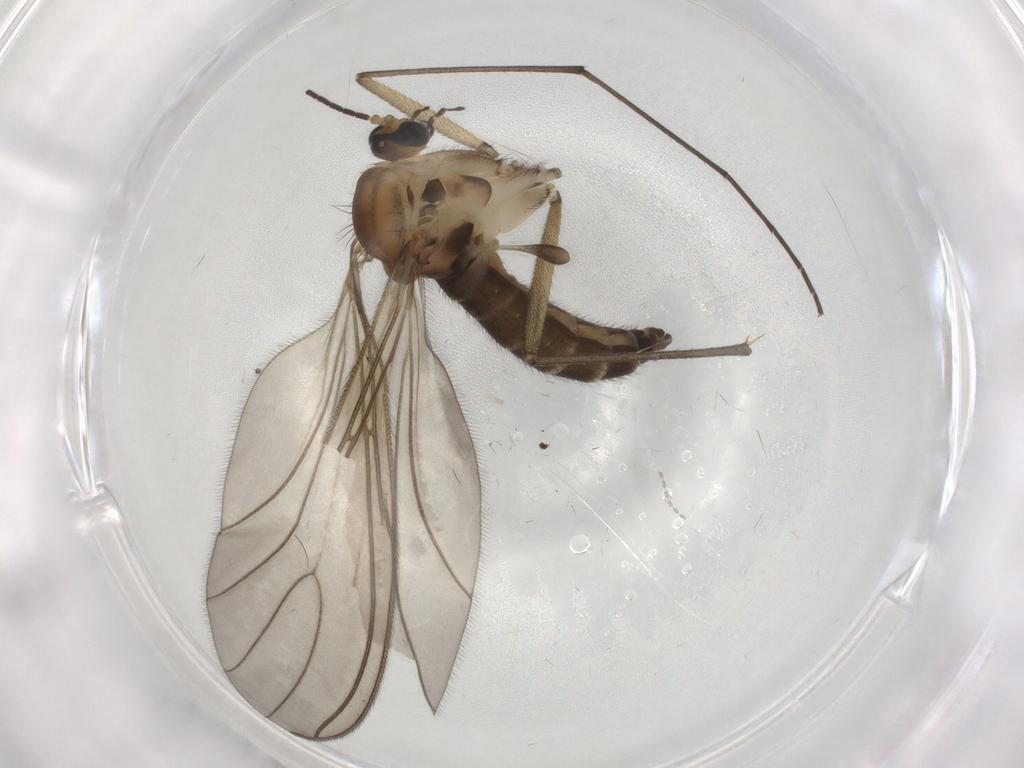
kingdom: Animalia
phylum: Arthropoda
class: Insecta
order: Diptera
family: Sciaridae
